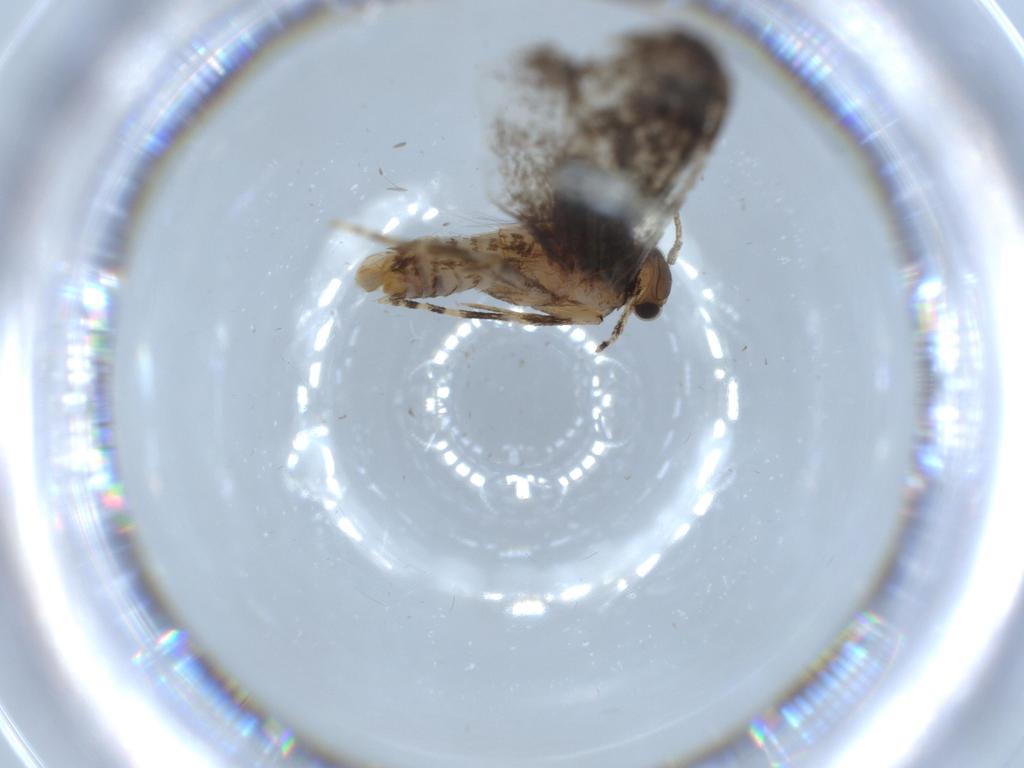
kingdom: Animalia
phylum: Arthropoda
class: Insecta
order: Lepidoptera
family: Tineidae
